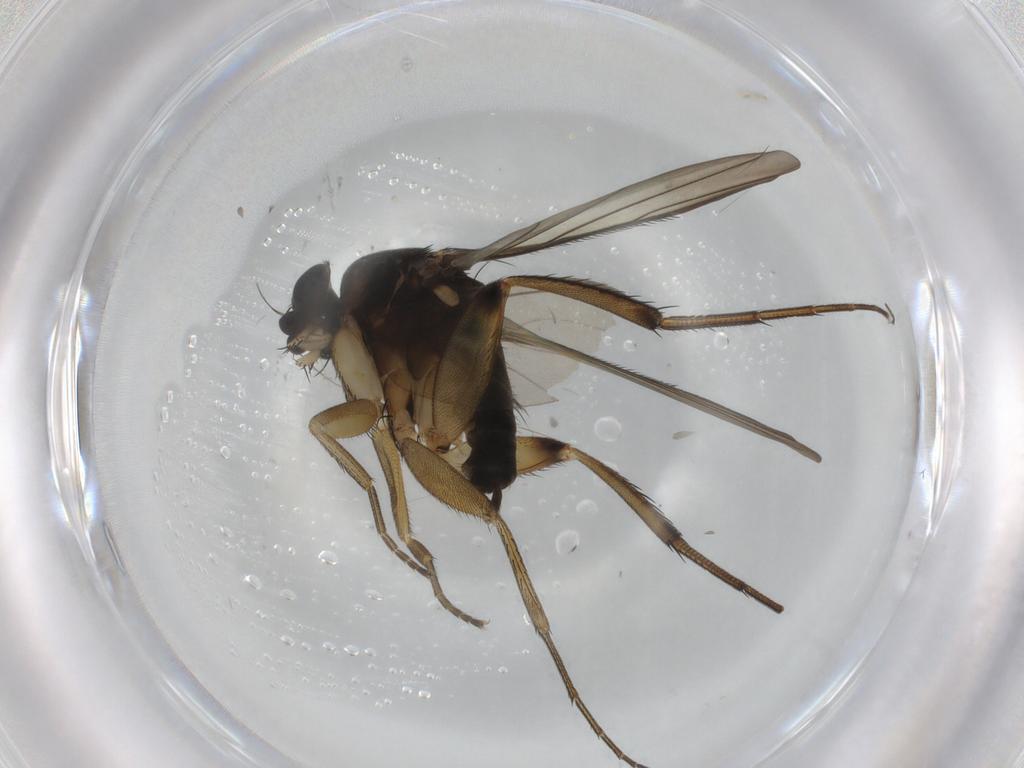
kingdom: Animalia
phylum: Arthropoda
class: Insecta
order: Diptera
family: Phoridae
